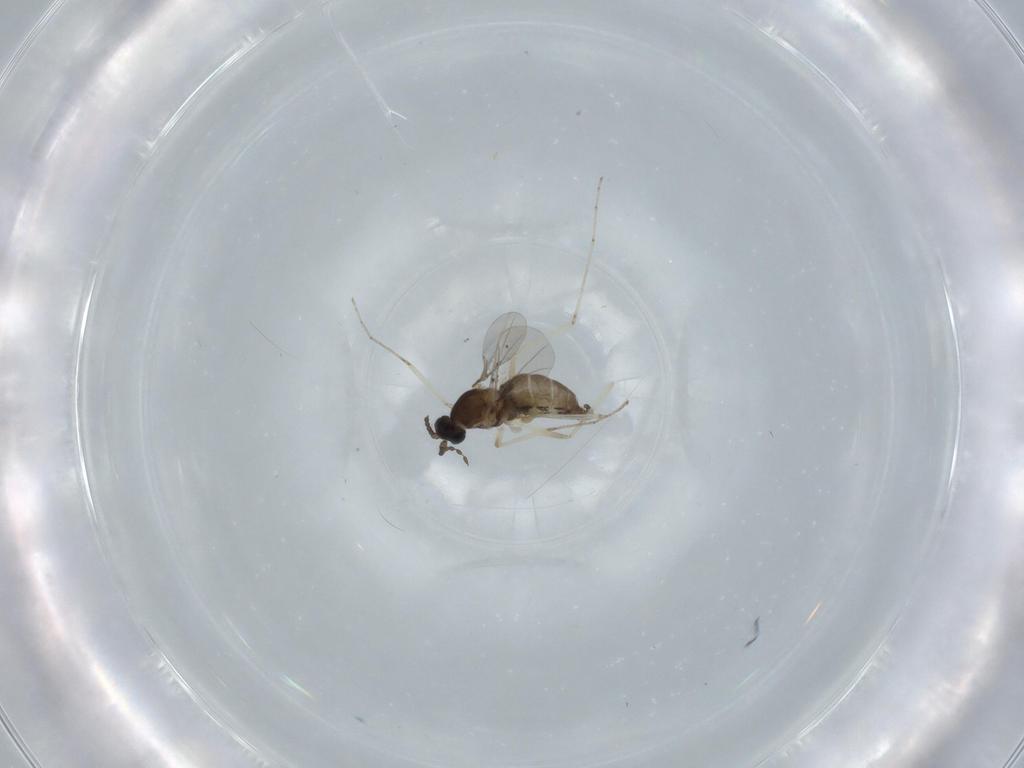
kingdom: Animalia
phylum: Arthropoda
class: Insecta
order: Diptera
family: Cecidomyiidae
